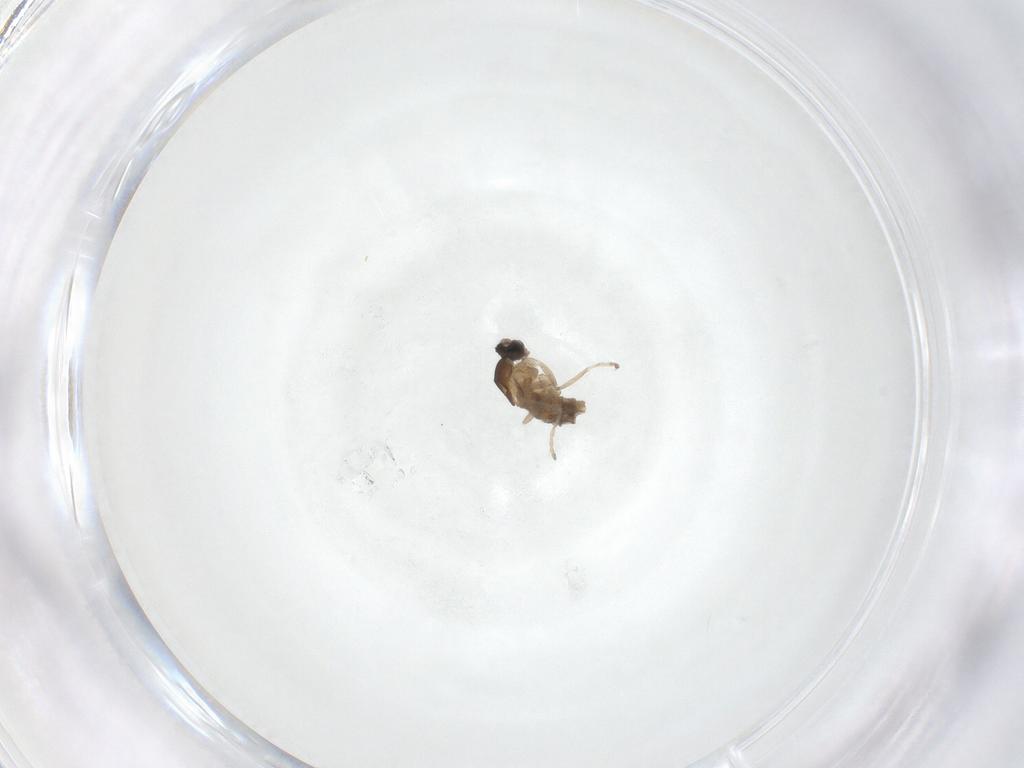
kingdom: Animalia
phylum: Arthropoda
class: Insecta
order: Diptera
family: Cecidomyiidae
